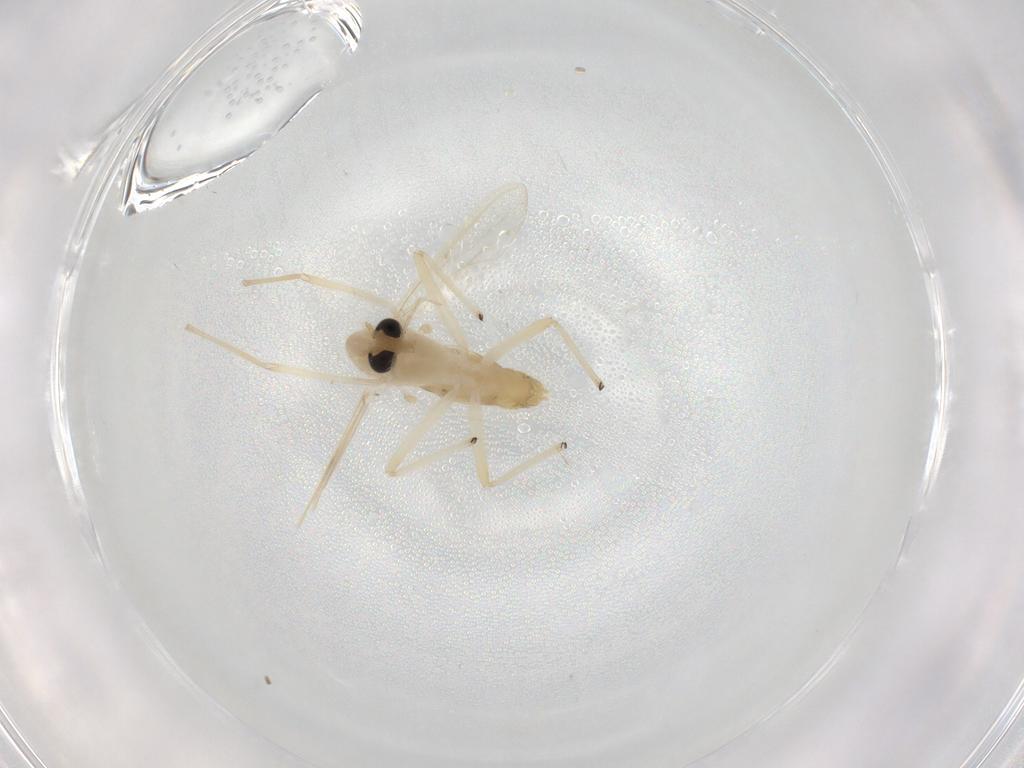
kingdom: Animalia
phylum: Arthropoda
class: Insecta
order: Diptera
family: Chironomidae
